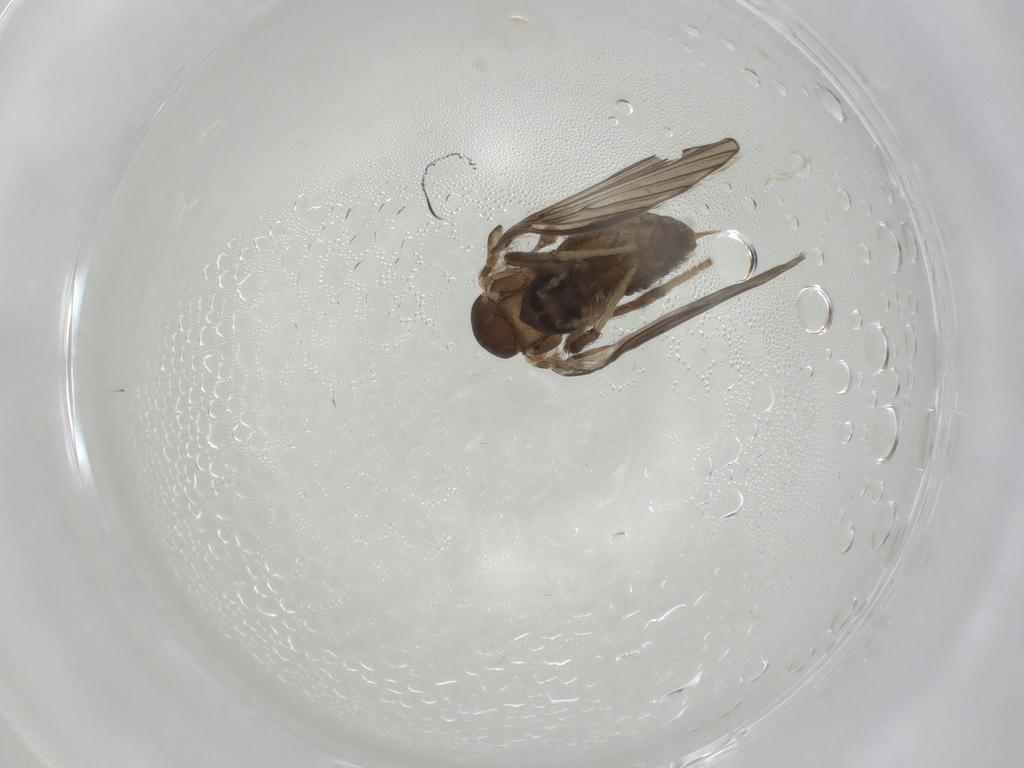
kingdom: Animalia
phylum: Arthropoda
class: Insecta
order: Diptera
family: Psychodidae
